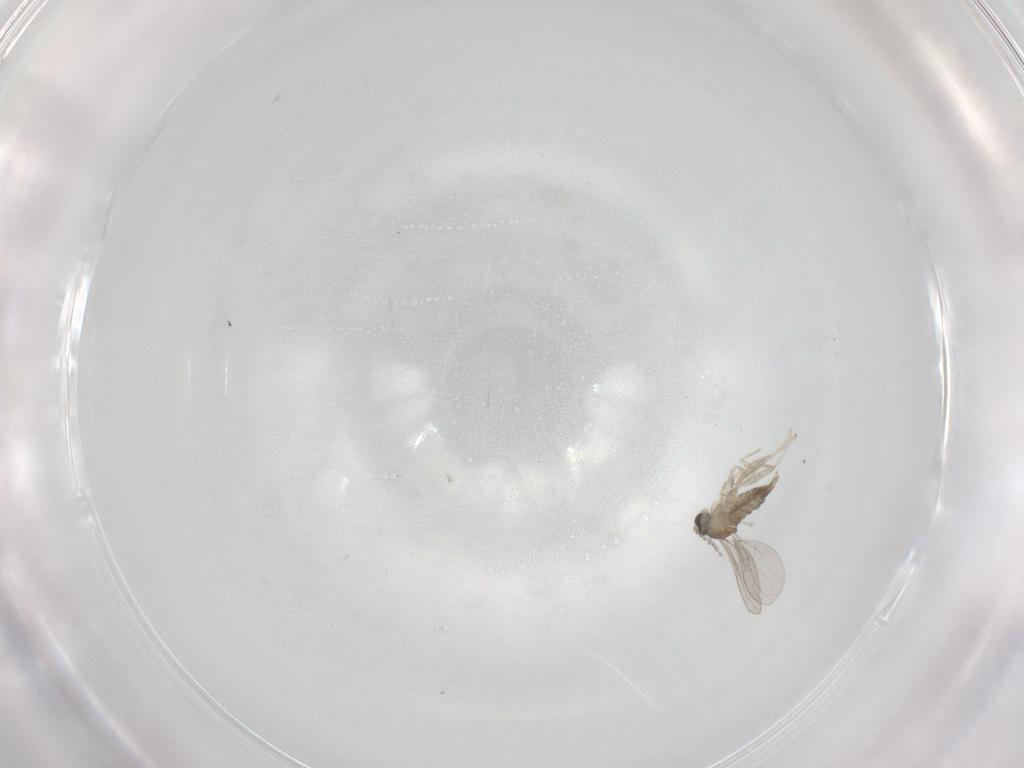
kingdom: Animalia
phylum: Arthropoda
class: Insecta
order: Diptera
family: Cecidomyiidae
